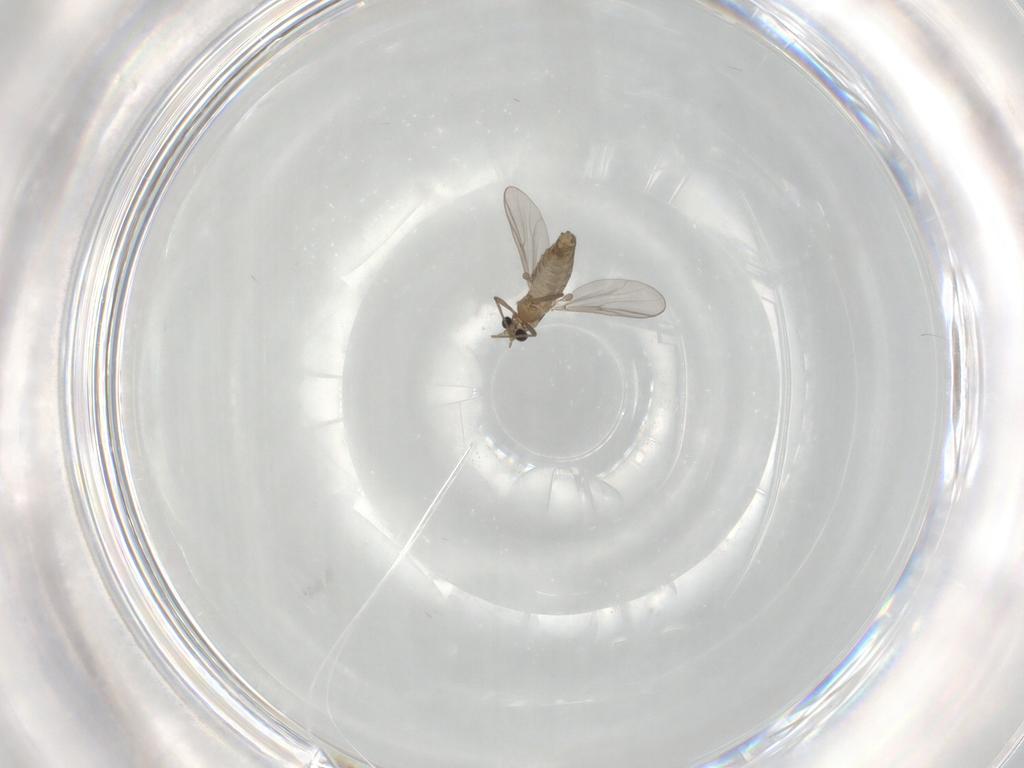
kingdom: Animalia
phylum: Arthropoda
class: Insecta
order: Diptera
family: Chironomidae
